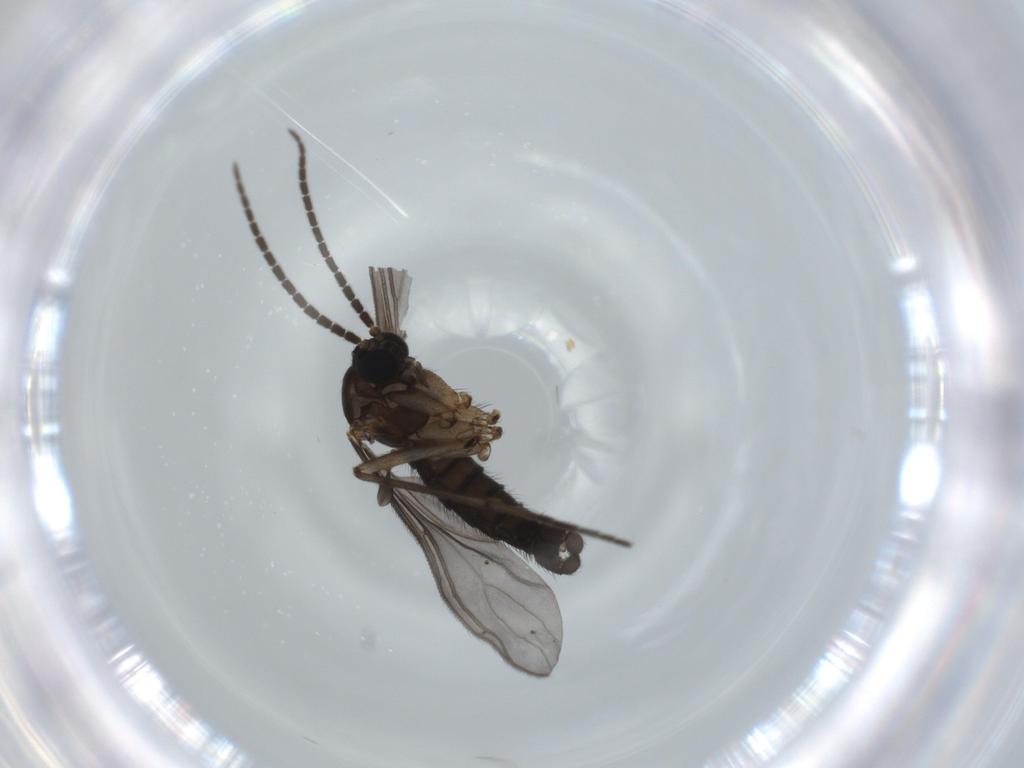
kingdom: Animalia
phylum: Arthropoda
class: Insecta
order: Diptera
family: Sciaridae
